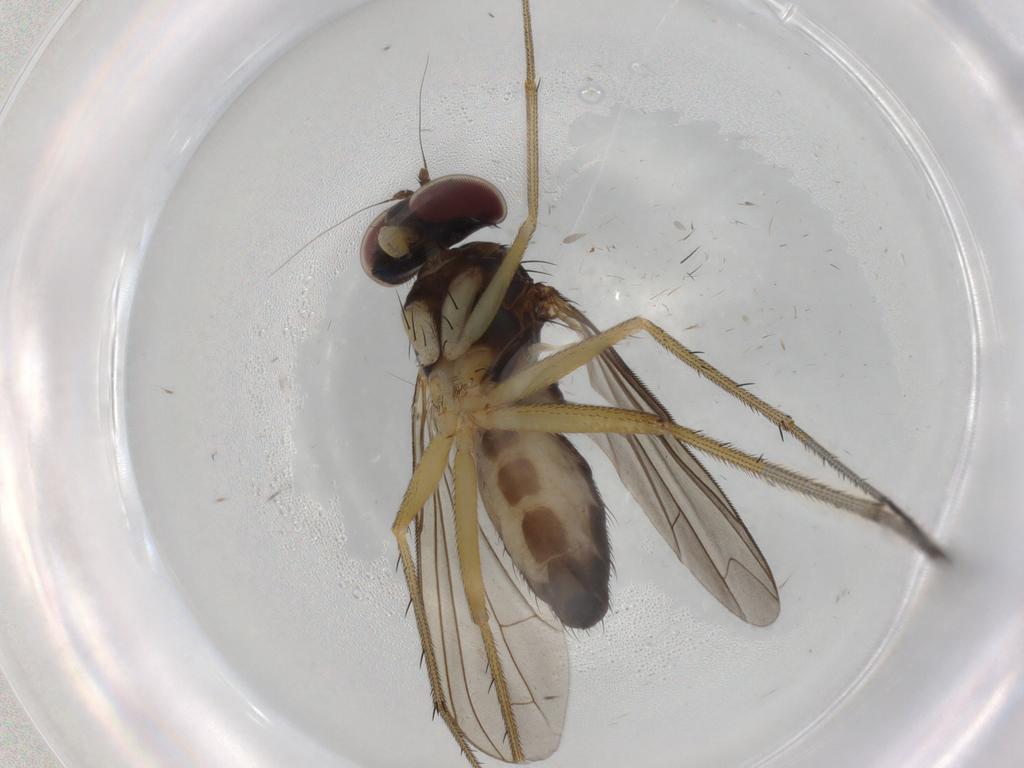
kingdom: Animalia
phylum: Arthropoda
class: Insecta
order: Diptera
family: Dolichopodidae
